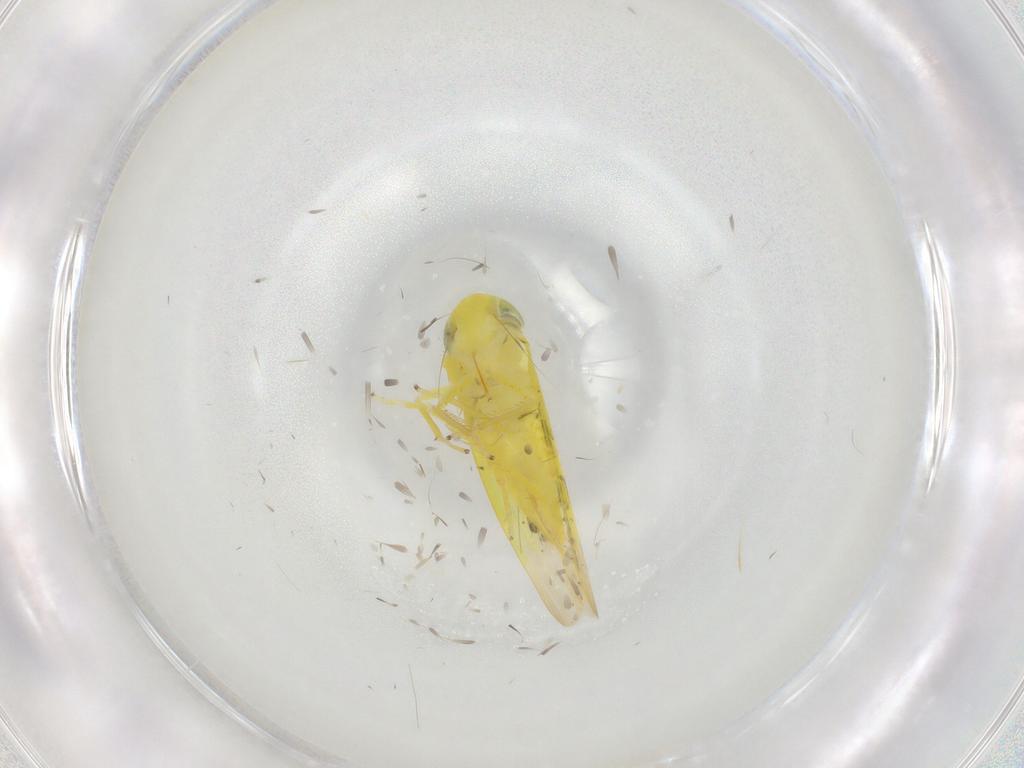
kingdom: Animalia
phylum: Arthropoda
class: Insecta
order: Hemiptera
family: Cicadellidae
